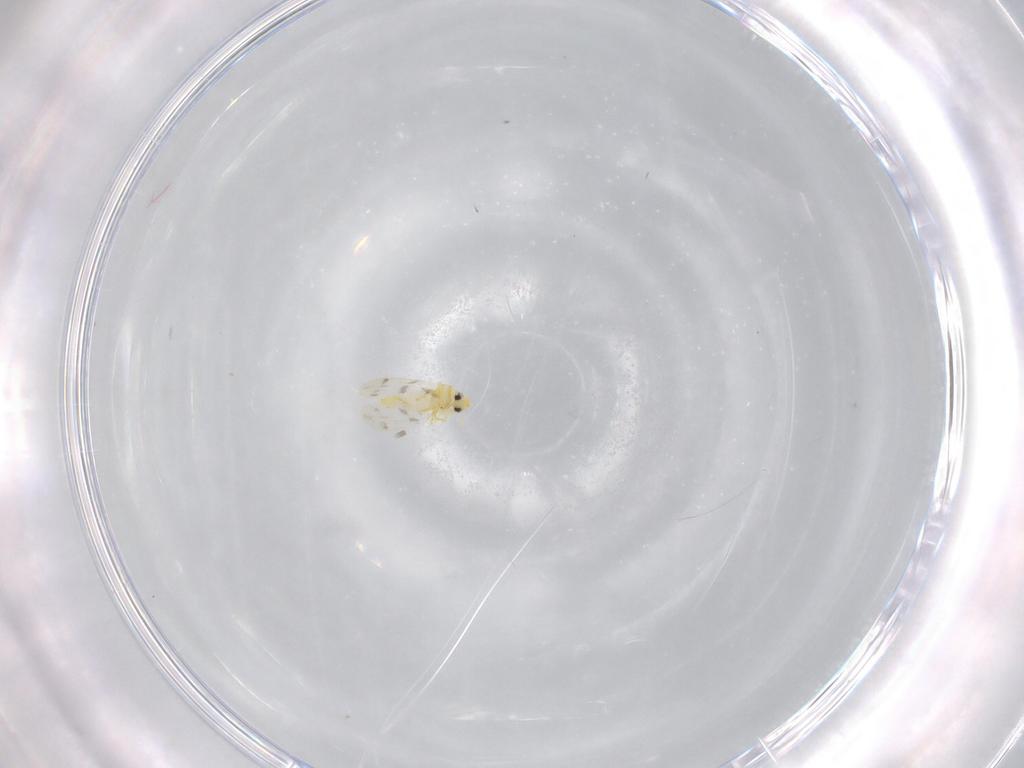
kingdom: Animalia
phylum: Arthropoda
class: Insecta
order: Hemiptera
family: Aleyrodidae
